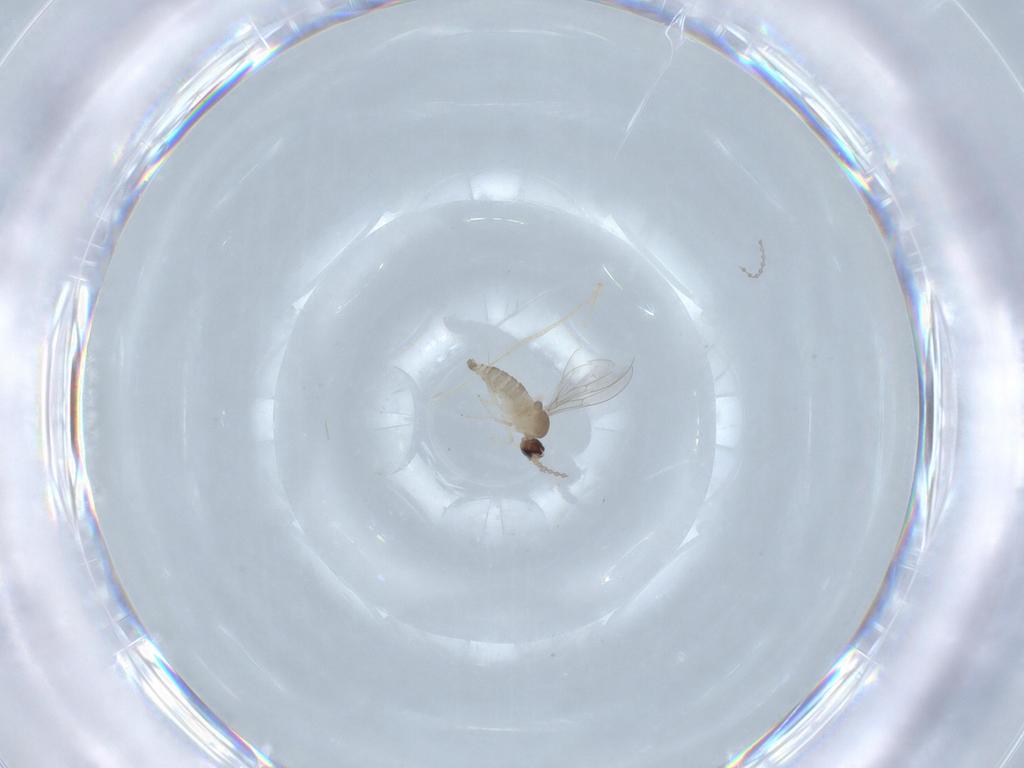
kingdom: Animalia
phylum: Arthropoda
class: Insecta
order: Diptera
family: Cecidomyiidae
